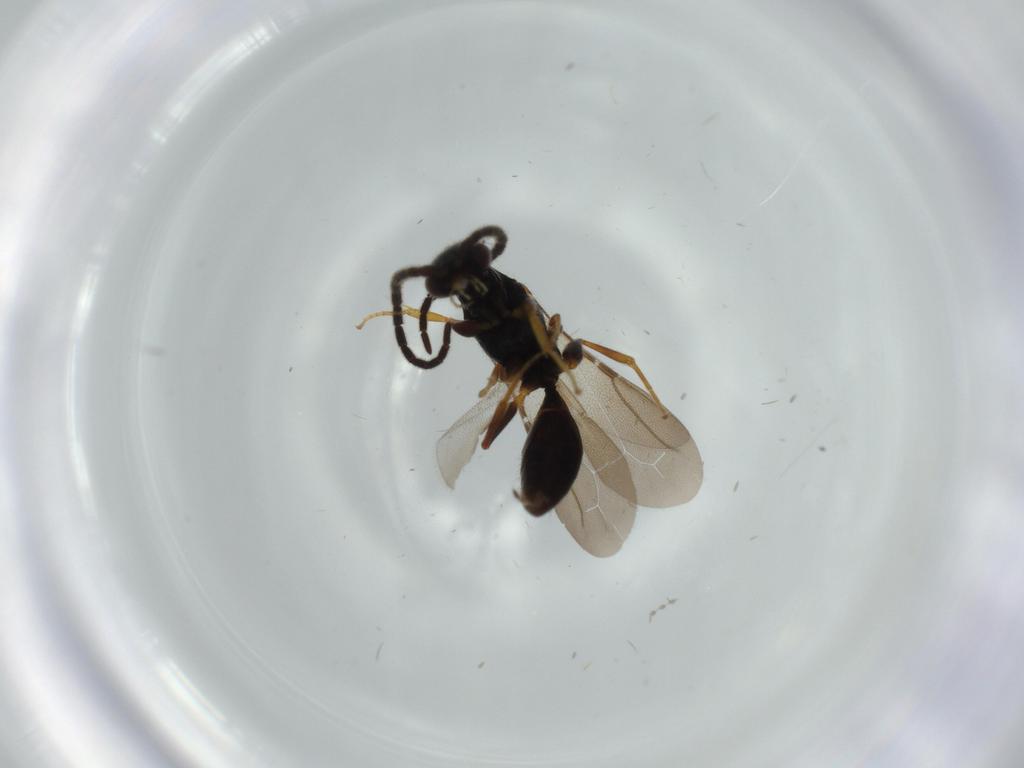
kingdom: Animalia
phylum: Arthropoda
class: Insecta
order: Hymenoptera
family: Bethylidae
